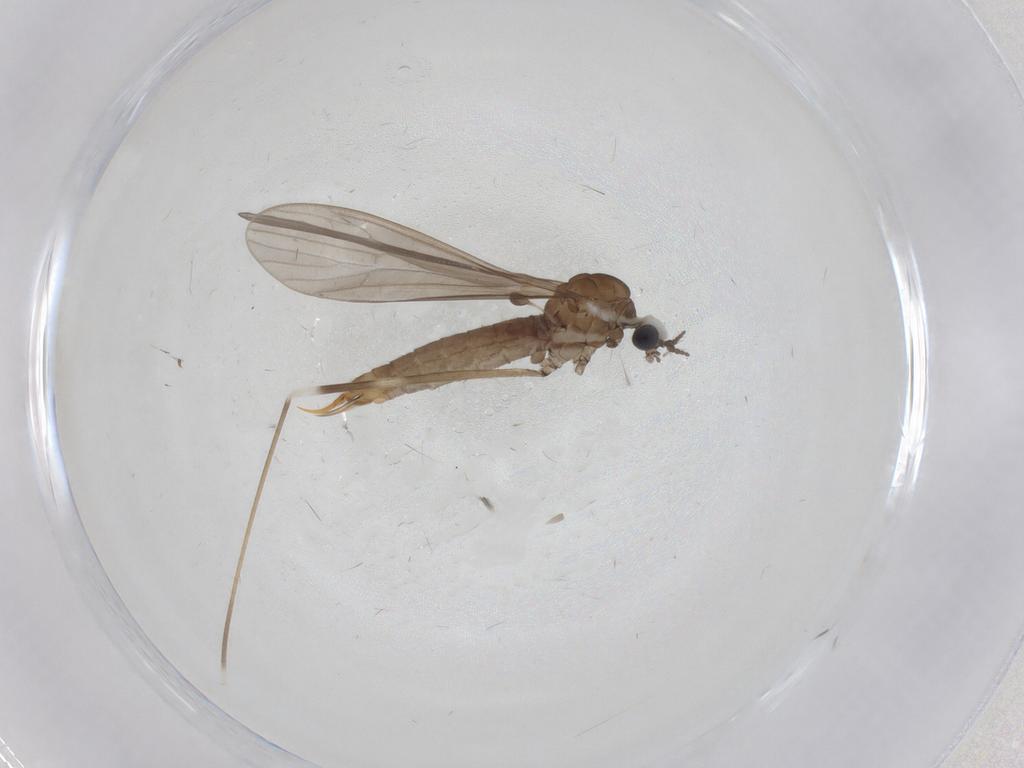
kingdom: Animalia
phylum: Arthropoda
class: Insecta
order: Diptera
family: Limoniidae
